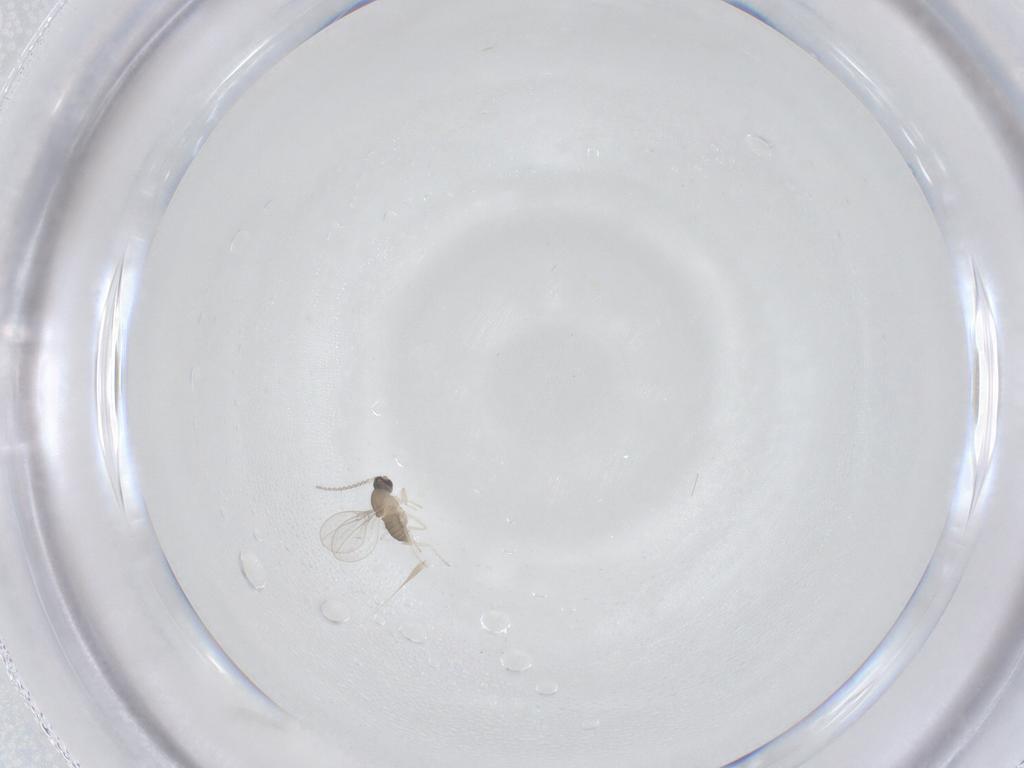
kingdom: Animalia
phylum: Arthropoda
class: Insecta
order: Diptera
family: Cecidomyiidae
